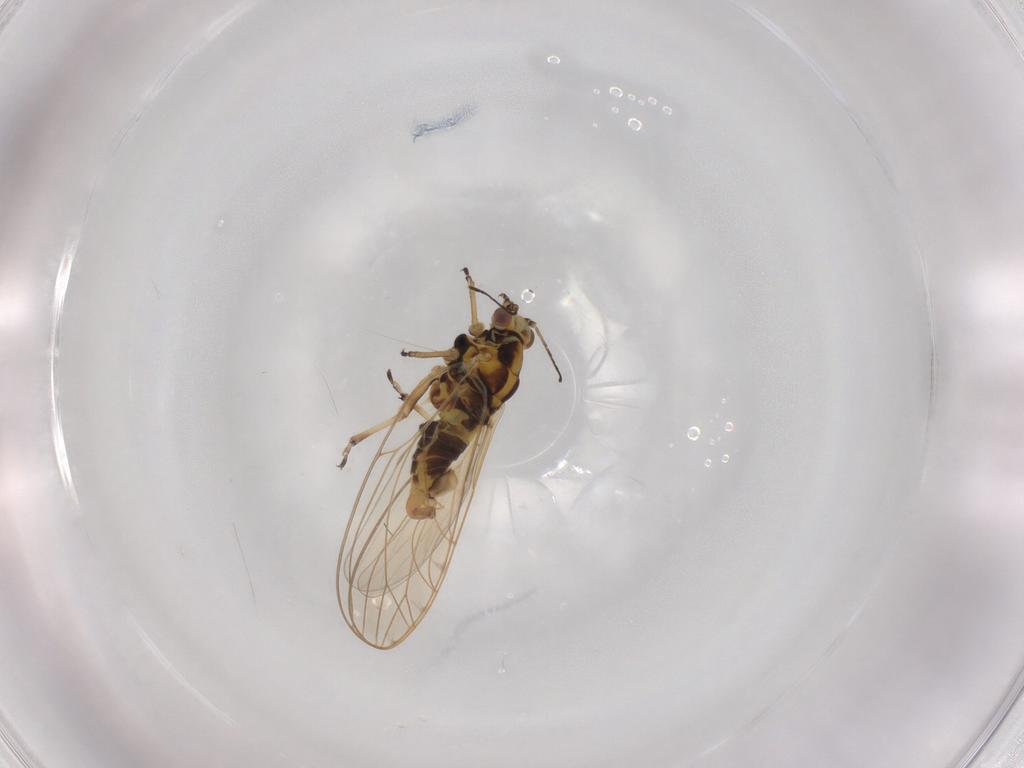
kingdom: Animalia
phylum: Arthropoda
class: Insecta
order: Hemiptera
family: Triozidae
